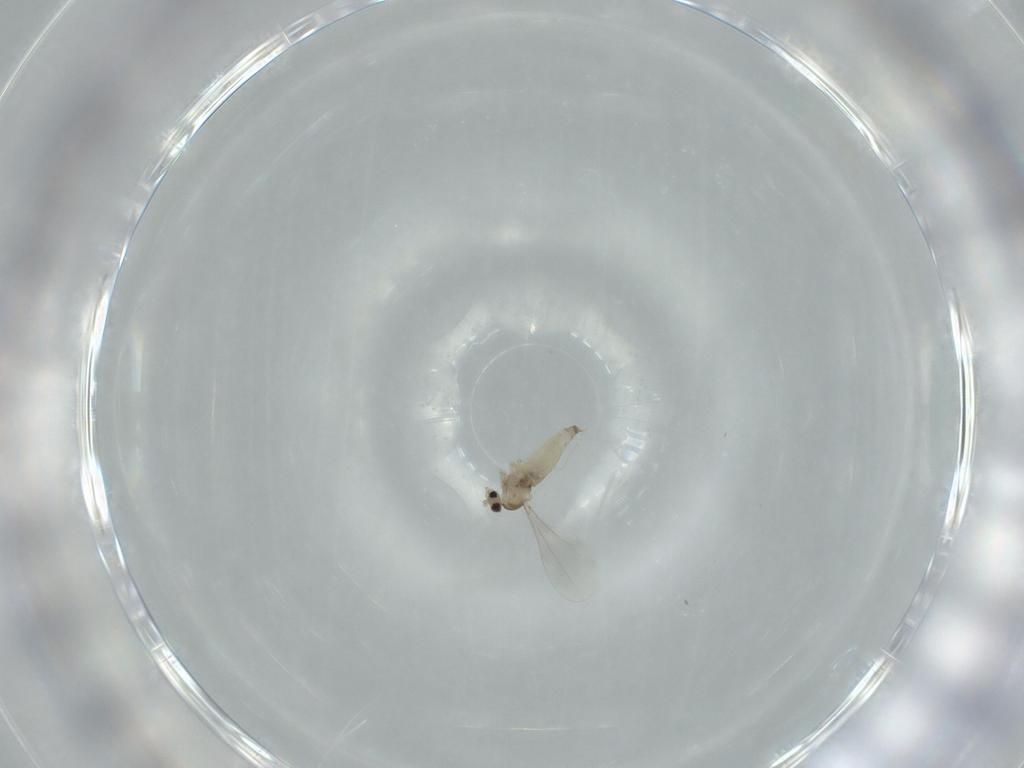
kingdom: Animalia
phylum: Arthropoda
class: Insecta
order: Diptera
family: Cecidomyiidae
